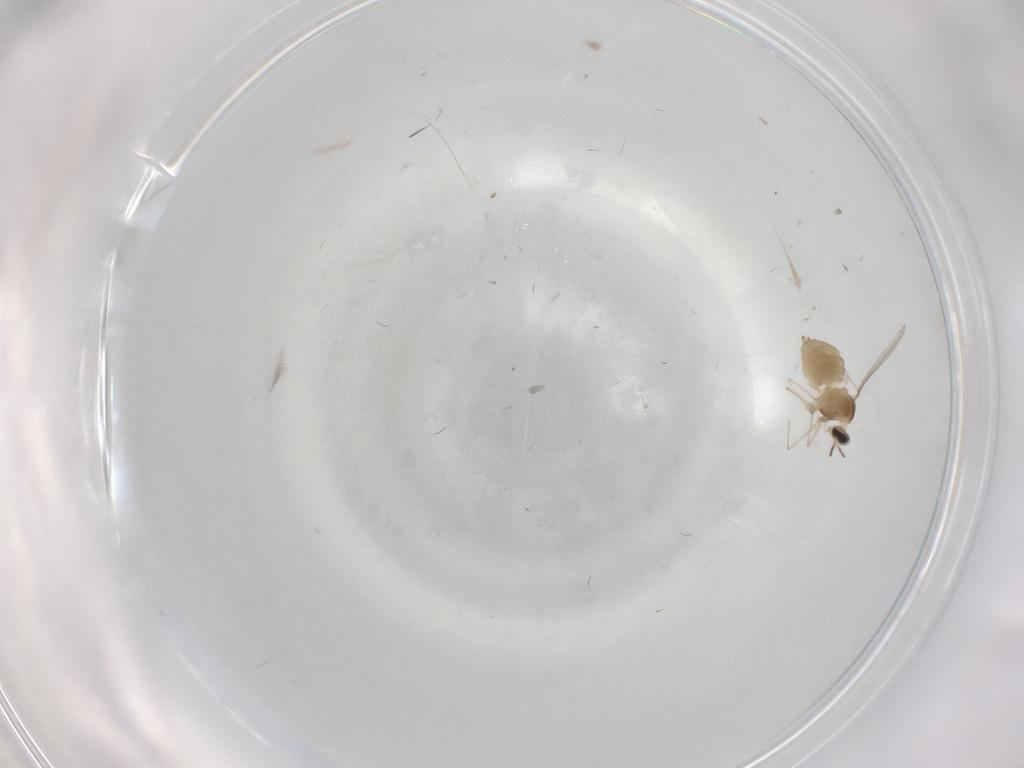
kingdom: Animalia
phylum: Arthropoda
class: Insecta
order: Diptera
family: Cecidomyiidae
